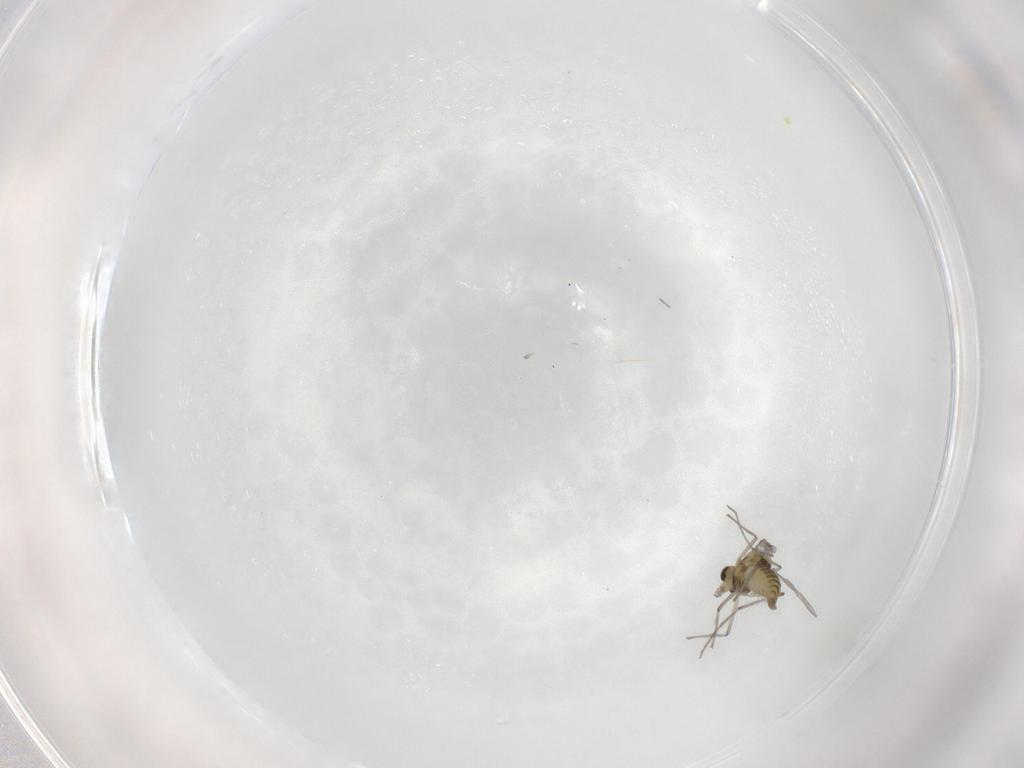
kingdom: Animalia
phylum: Arthropoda
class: Insecta
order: Diptera
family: Chironomidae
